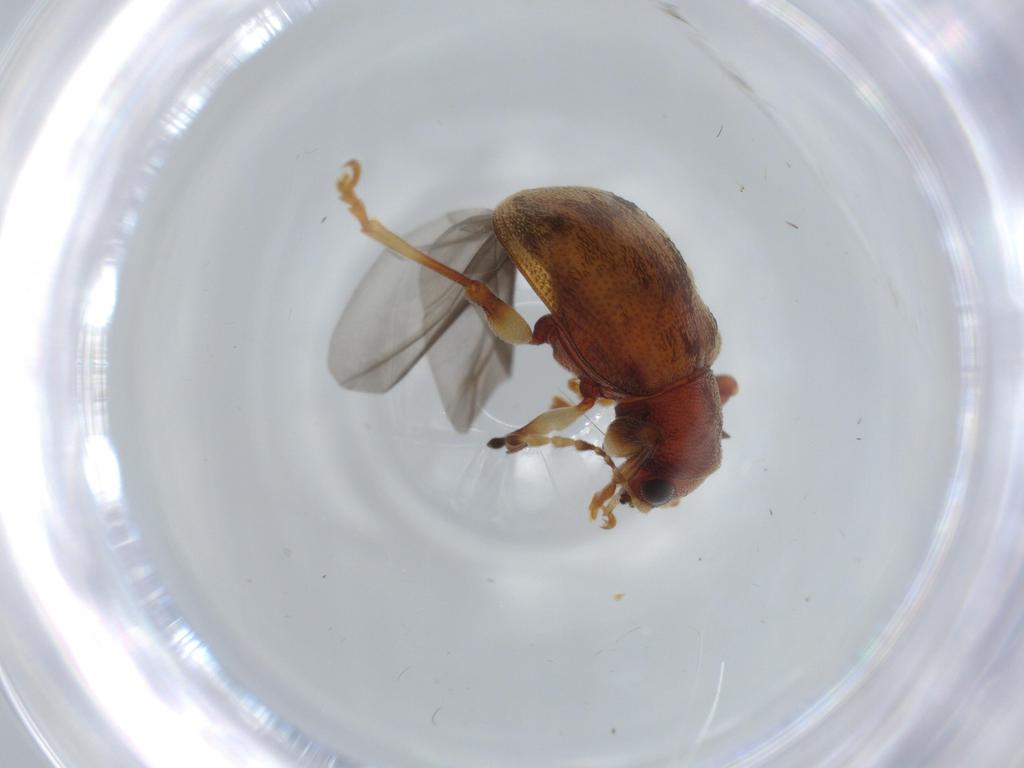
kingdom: Animalia
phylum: Arthropoda
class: Insecta
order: Coleoptera
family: Chrysomelidae
